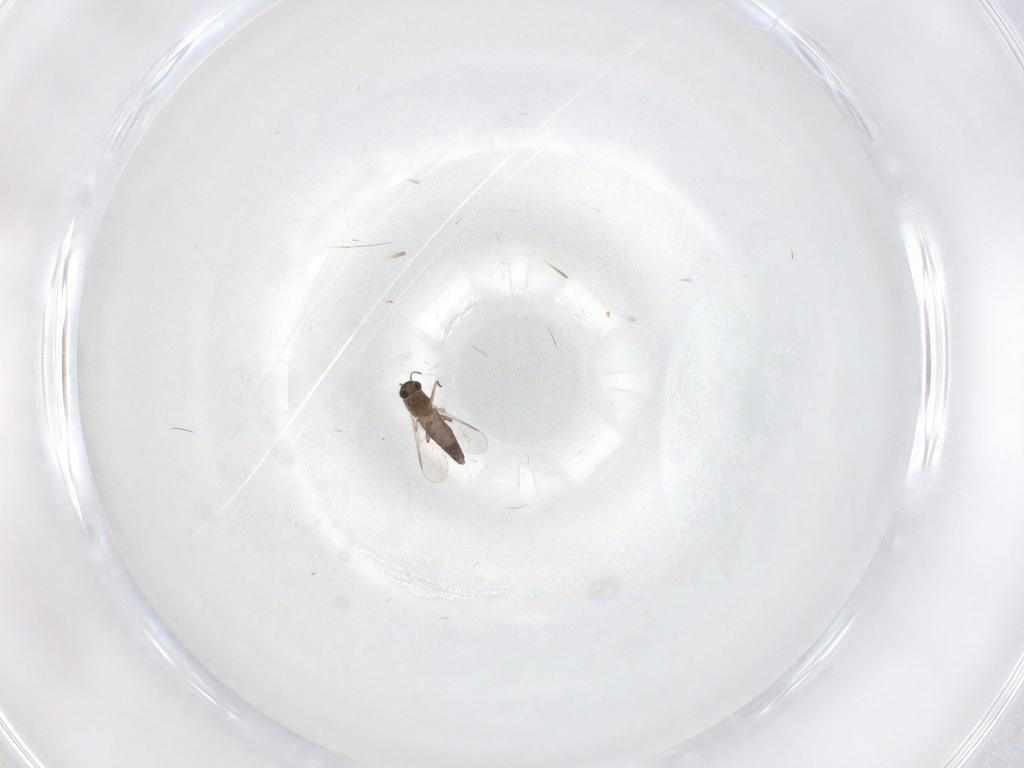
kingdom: Animalia
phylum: Arthropoda
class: Insecta
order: Diptera
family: Chironomidae
